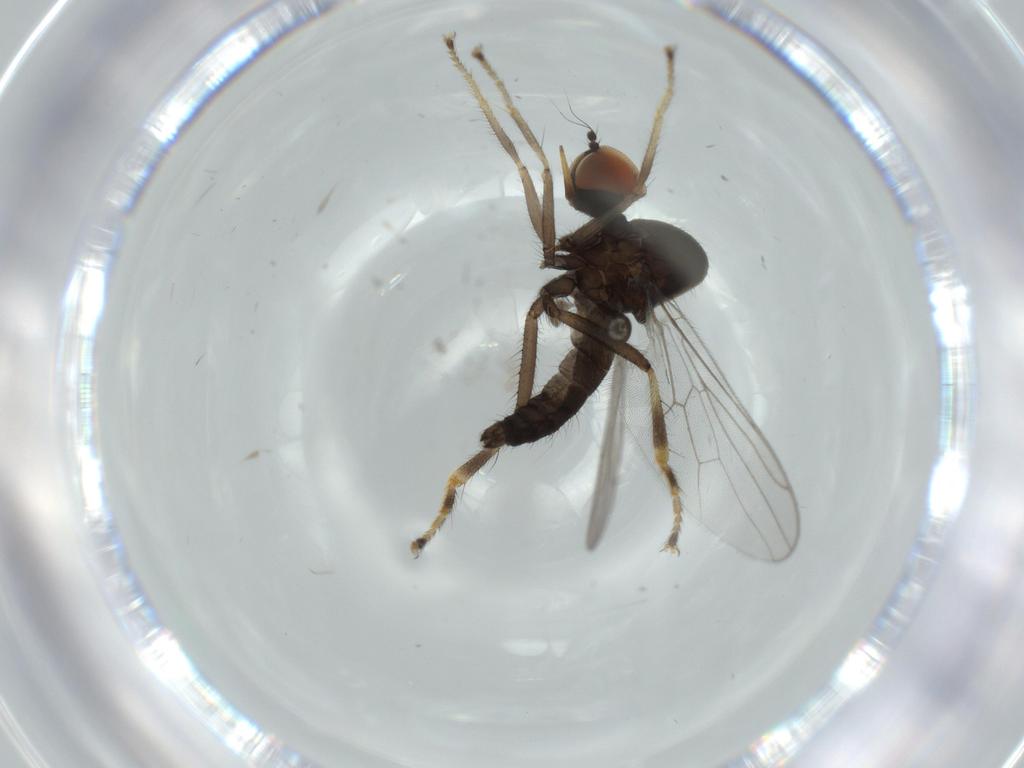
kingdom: Animalia
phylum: Arthropoda
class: Insecta
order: Diptera
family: Hybotidae
